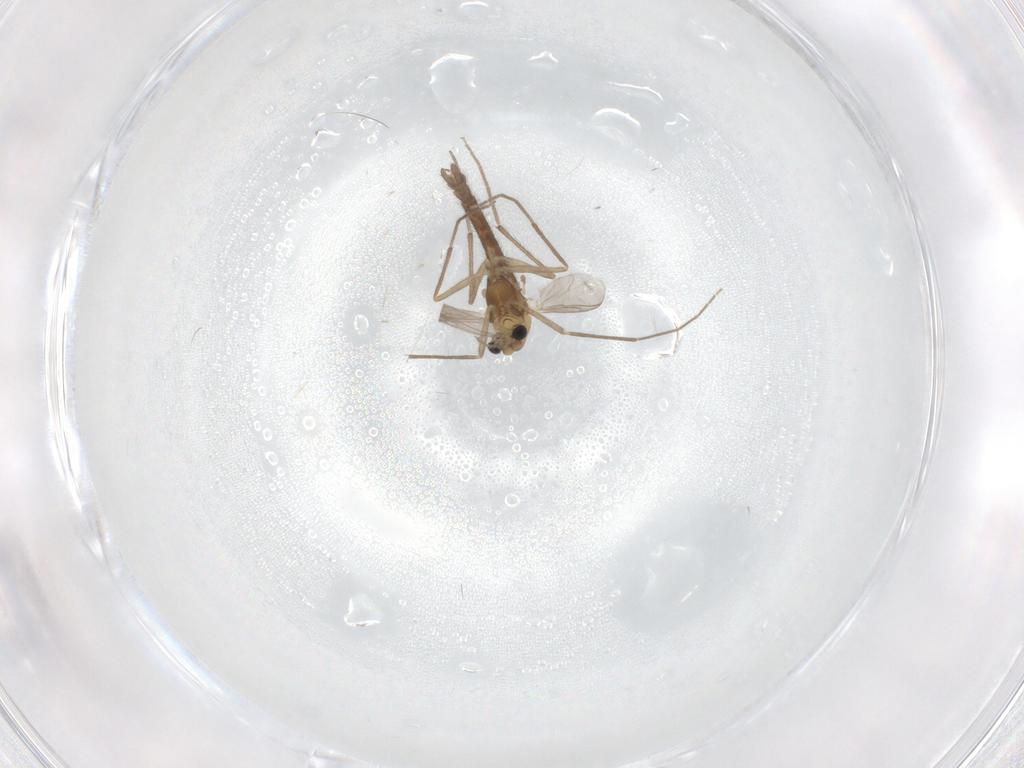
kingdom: Animalia
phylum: Arthropoda
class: Insecta
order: Diptera
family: Chironomidae
